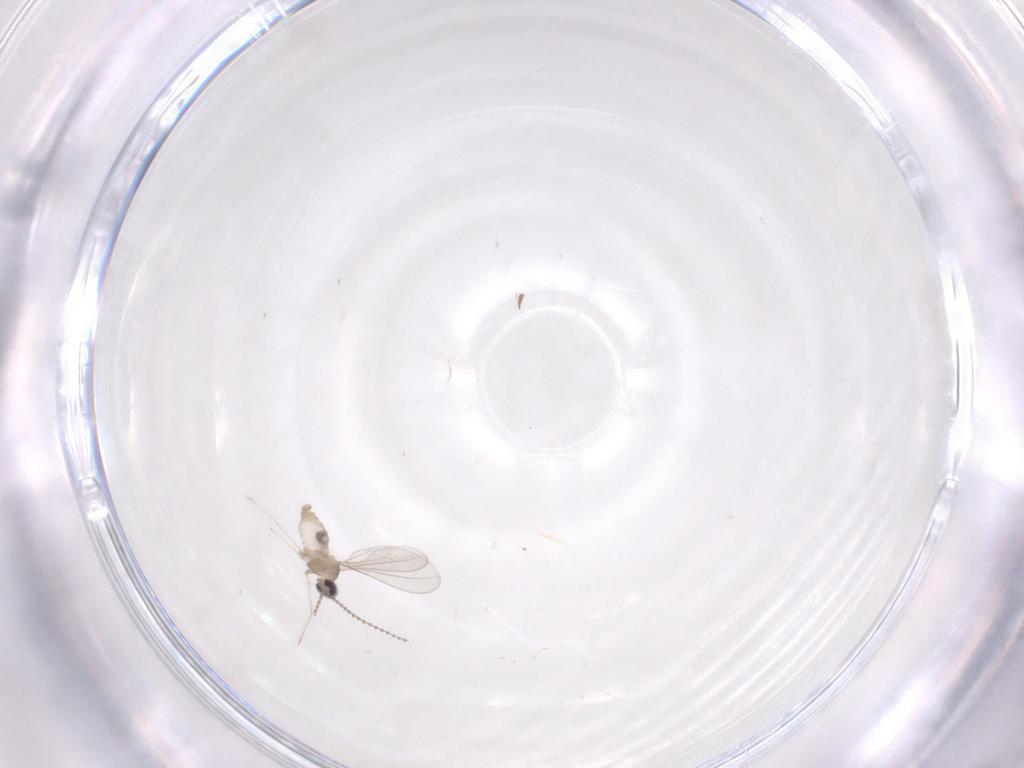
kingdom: Animalia
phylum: Arthropoda
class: Insecta
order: Diptera
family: Cecidomyiidae
